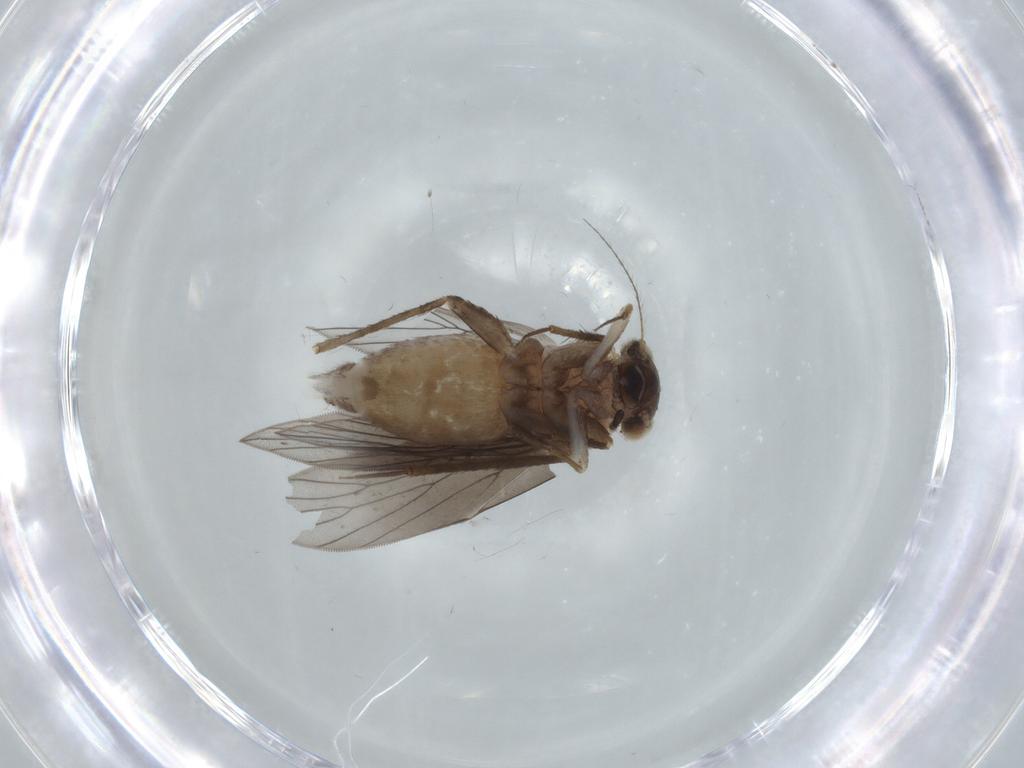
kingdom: Animalia
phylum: Arthropoda
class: Insecta
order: Psocodea
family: Lepidopsocidae
